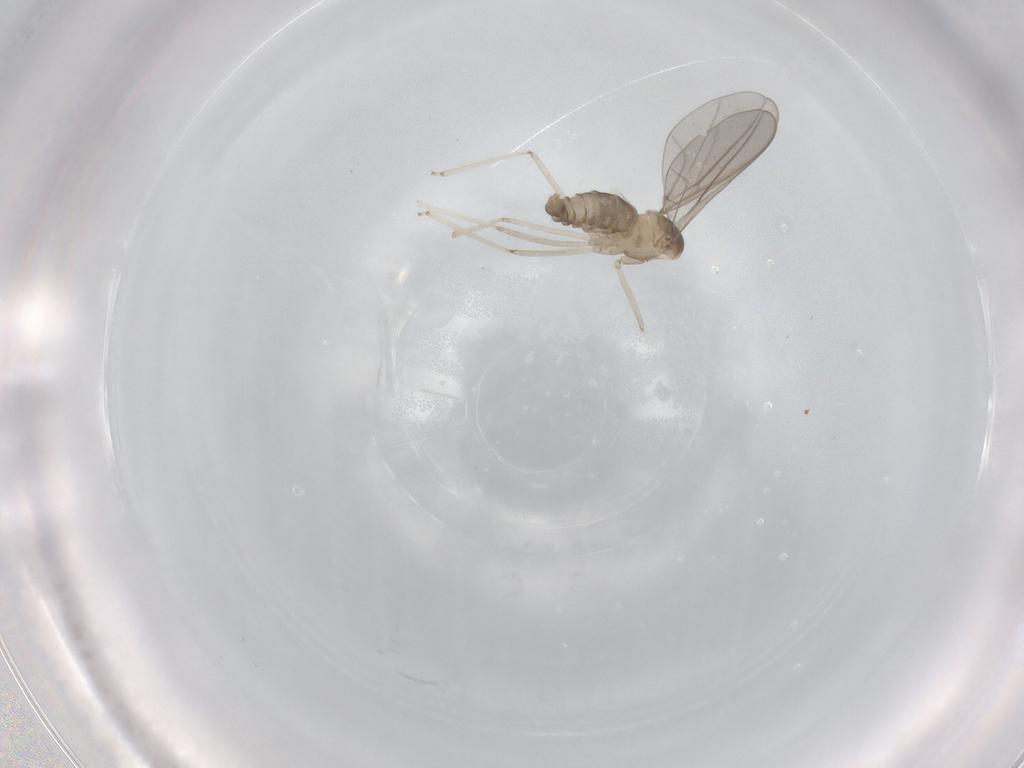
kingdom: Animalia
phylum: Arthropoda
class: Insecta
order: Diptera
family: Cecidomyiidae
